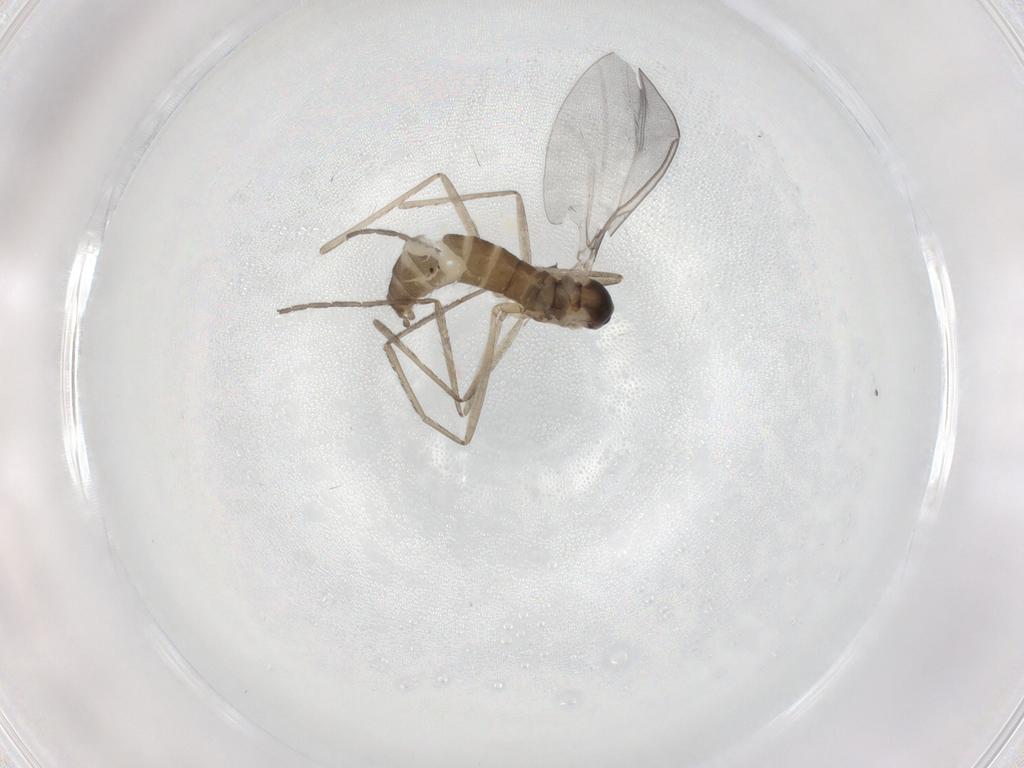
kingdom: Animalia
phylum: Arthropoda
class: Insecta
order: Diptera
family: Cecidomyiidae
